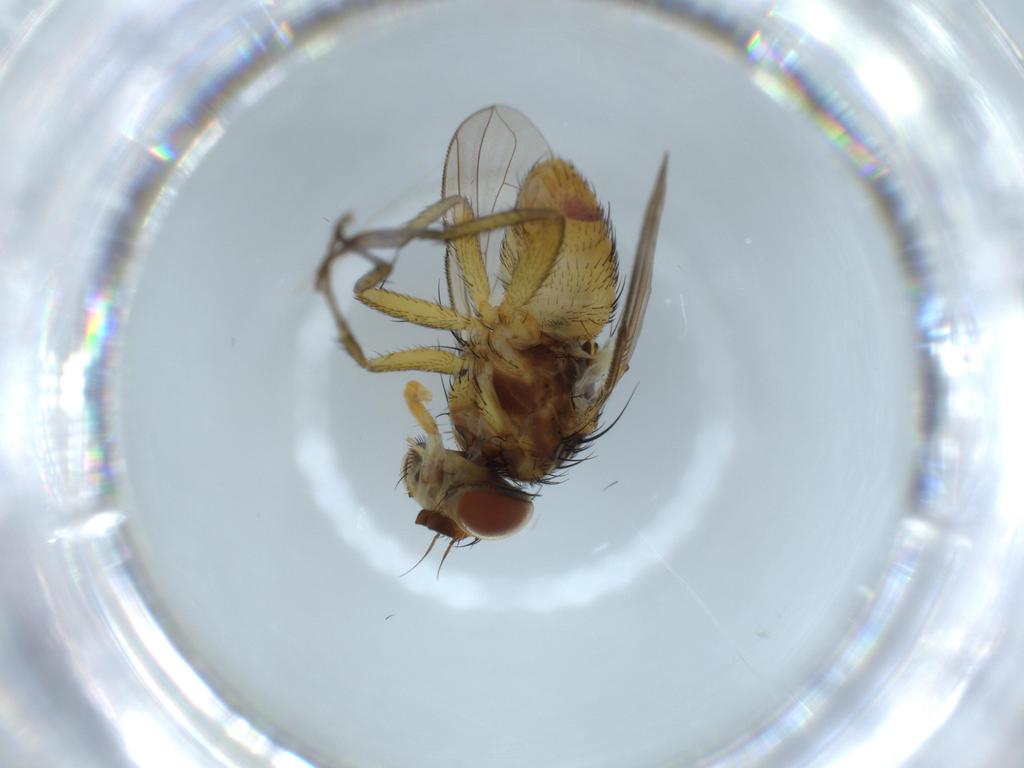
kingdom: Animalia
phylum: Arthropoda
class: Insecta
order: Diptera
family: Chloropidae
